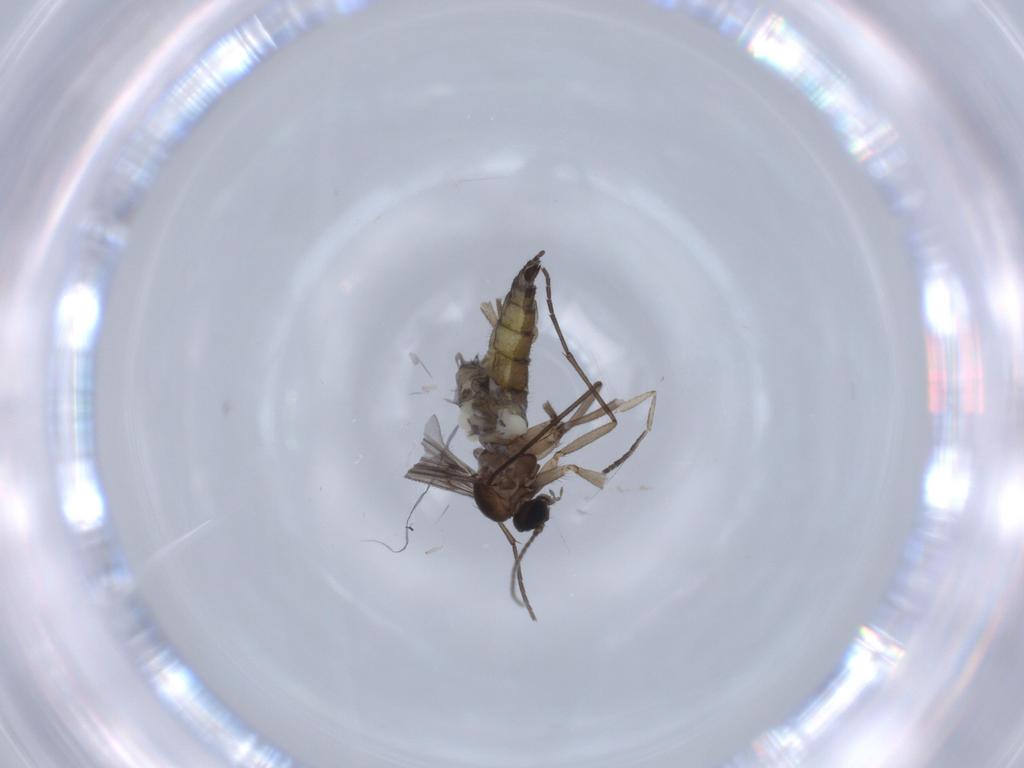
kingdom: Animalia
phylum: Arthropoda
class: Insecta
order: Diptera
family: Sciaridae
